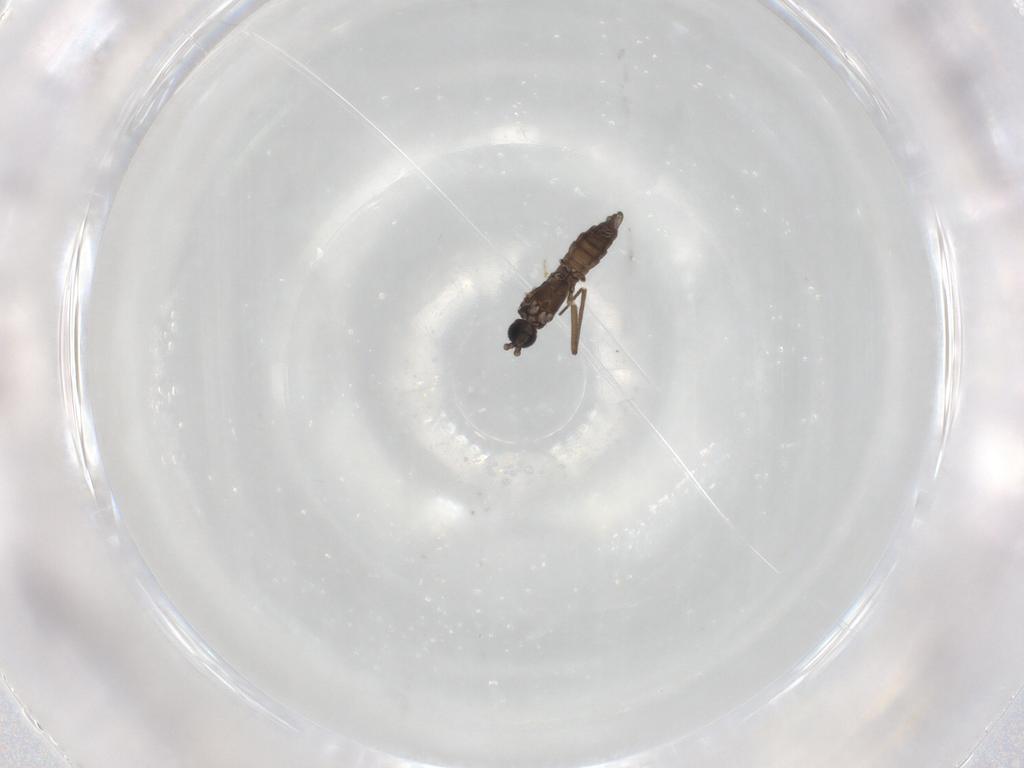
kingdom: Animalia
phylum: Arthropoda
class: Insecta
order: Diptera
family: Sciaridae
